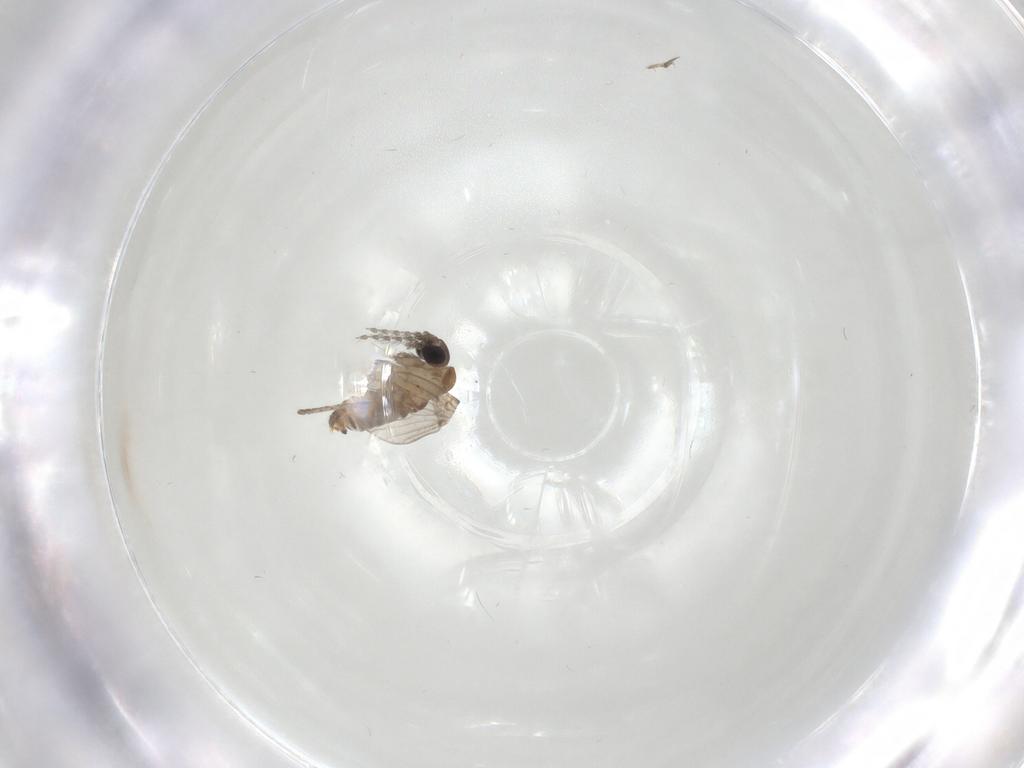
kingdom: Animalia
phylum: Arthropoda
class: Insecta
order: Diptera
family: Psychodidae
